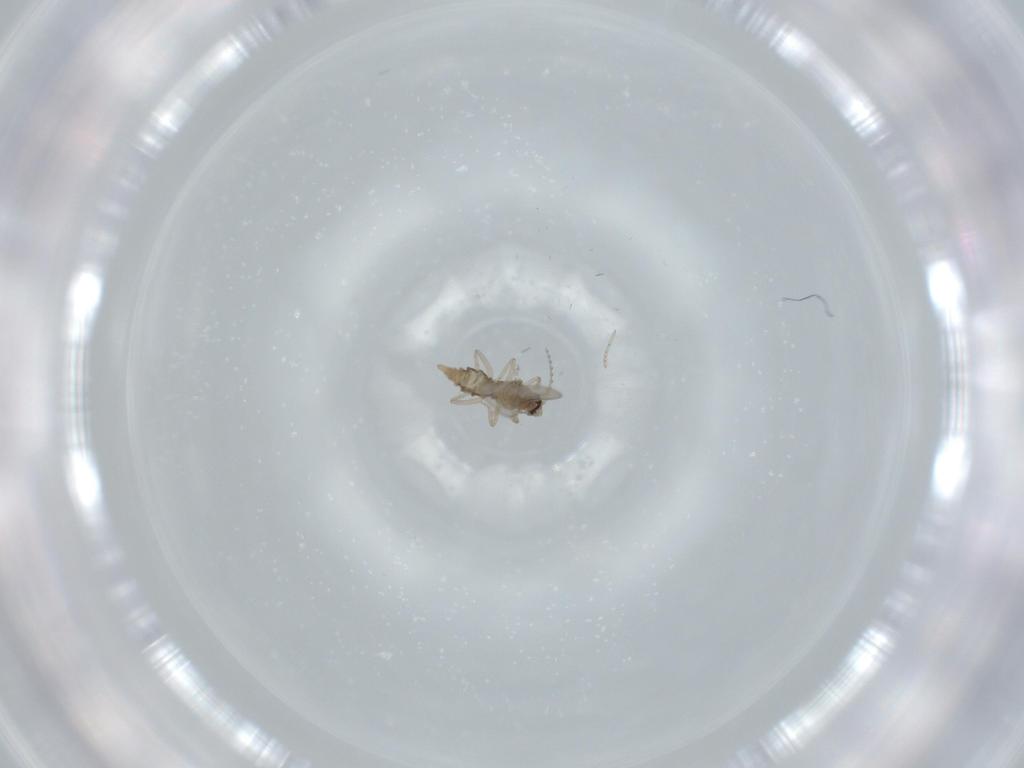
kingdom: Animalia
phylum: Arthropoda
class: Insecta
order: Diptera
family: Cecidomyiidae
